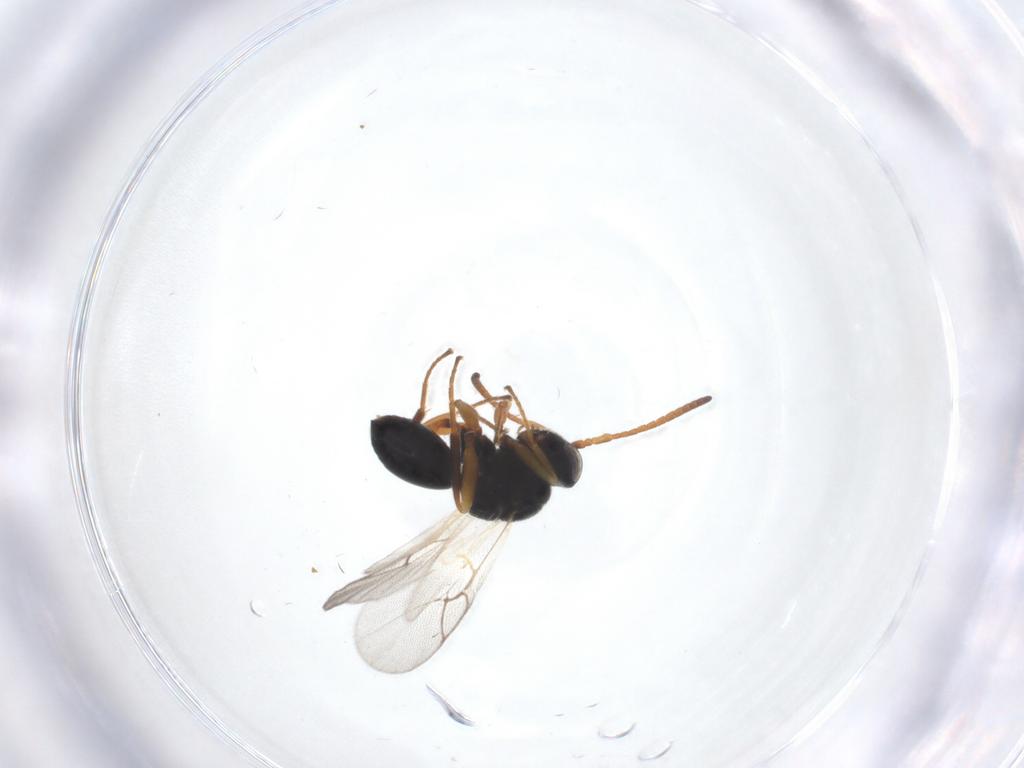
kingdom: Animalia
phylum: Arthropoda
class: Insecta
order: Hymenoptera
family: Cynipidae
